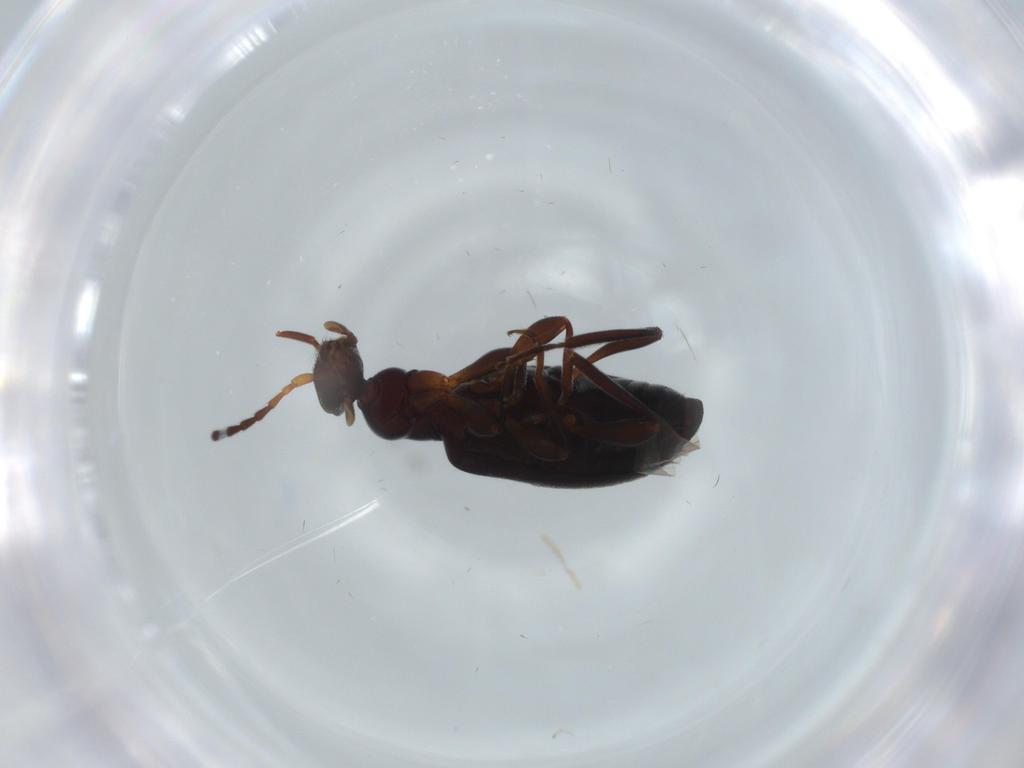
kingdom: Animalia
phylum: Arthropoda
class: Insecta
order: Coleoptera
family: Anthicidae
